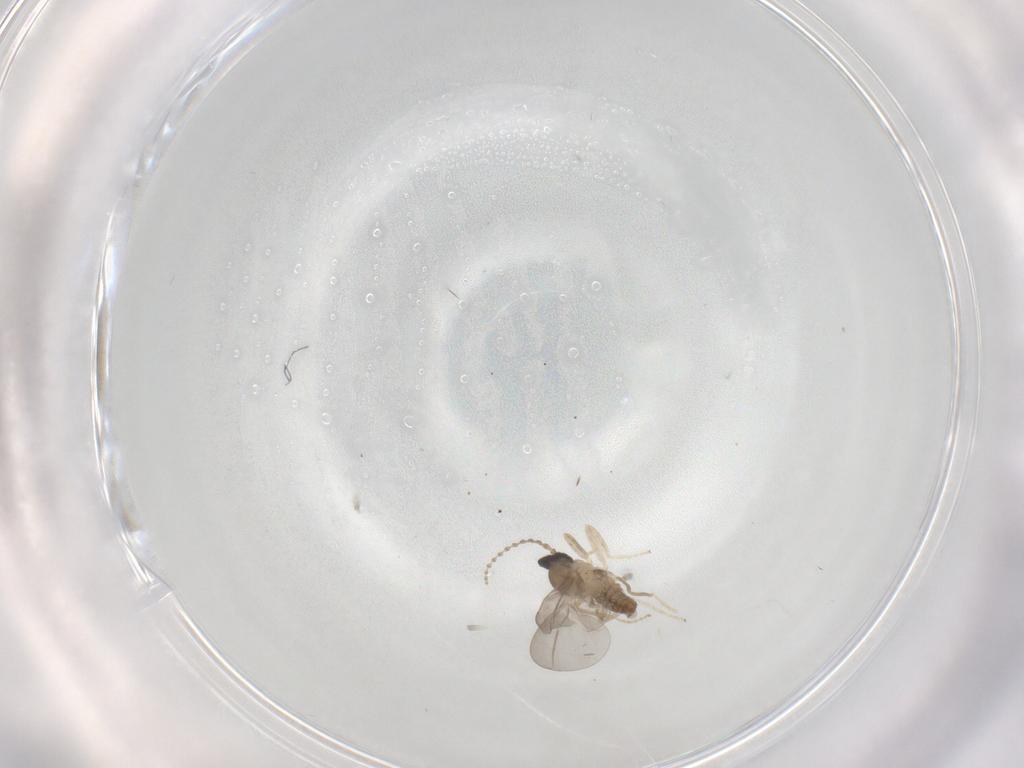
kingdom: Animalia
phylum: Arthropoda
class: Insecta
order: Diptera
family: Cecidomyiidae
